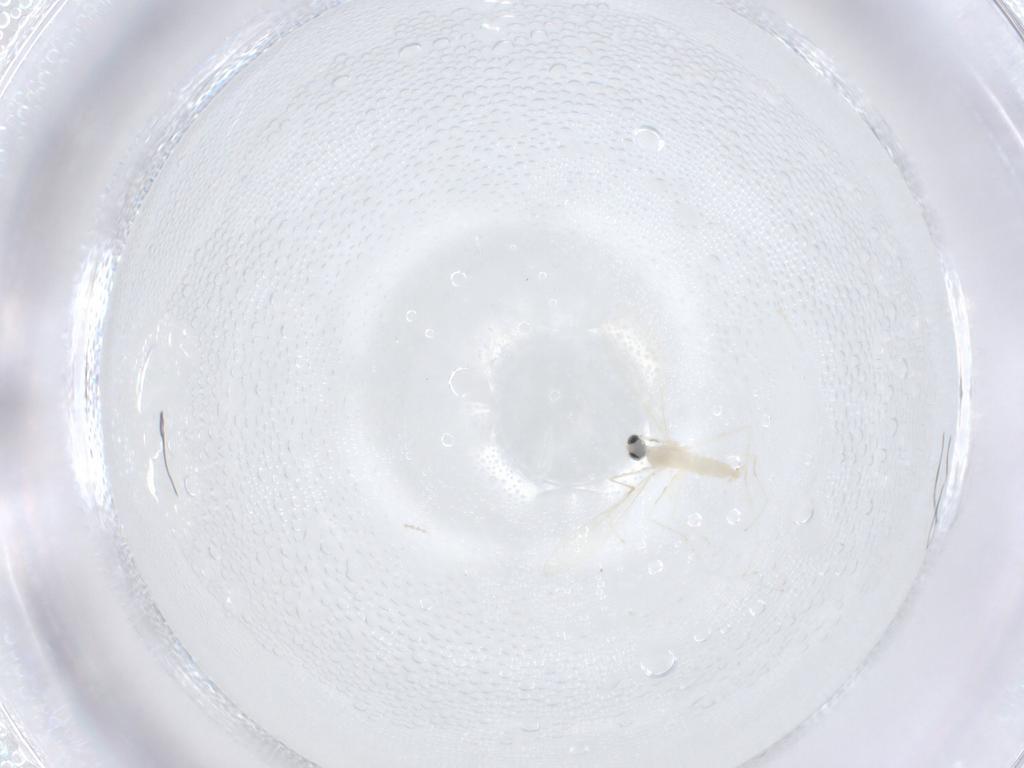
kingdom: Animalia
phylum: Arthropoda
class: Insecta
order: Diptera
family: Cecidomyiidae
